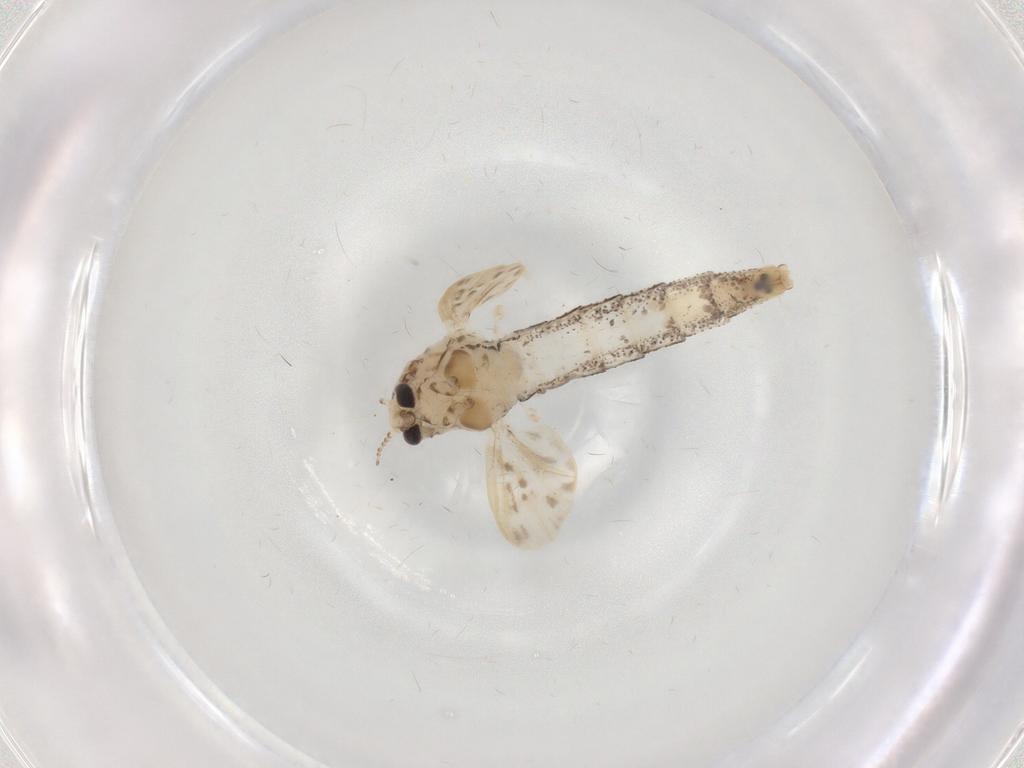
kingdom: Animalia
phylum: Arthropoda
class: Insecta
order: Diptera
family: Chaoboridae
